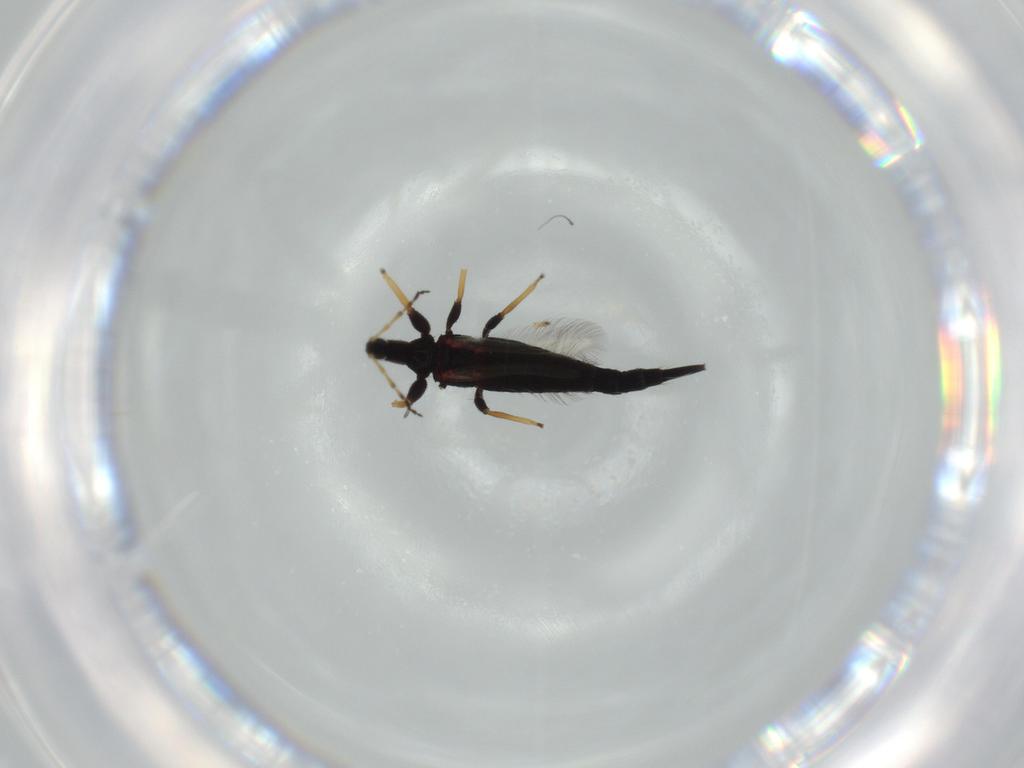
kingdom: Animalia
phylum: Arthropoda
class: Insecta
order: Thysanoptera
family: Phlaeothripidae
